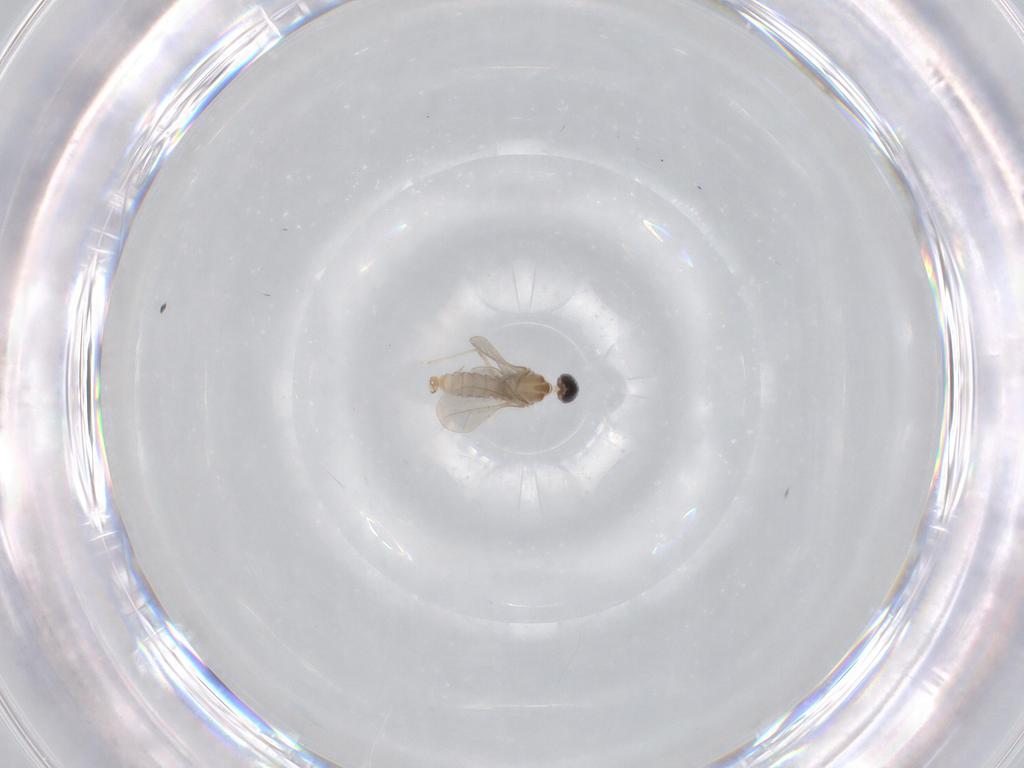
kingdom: Animalia
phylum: Arthropoda
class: Insecta
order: Diptera
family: Cecidomyiidae
